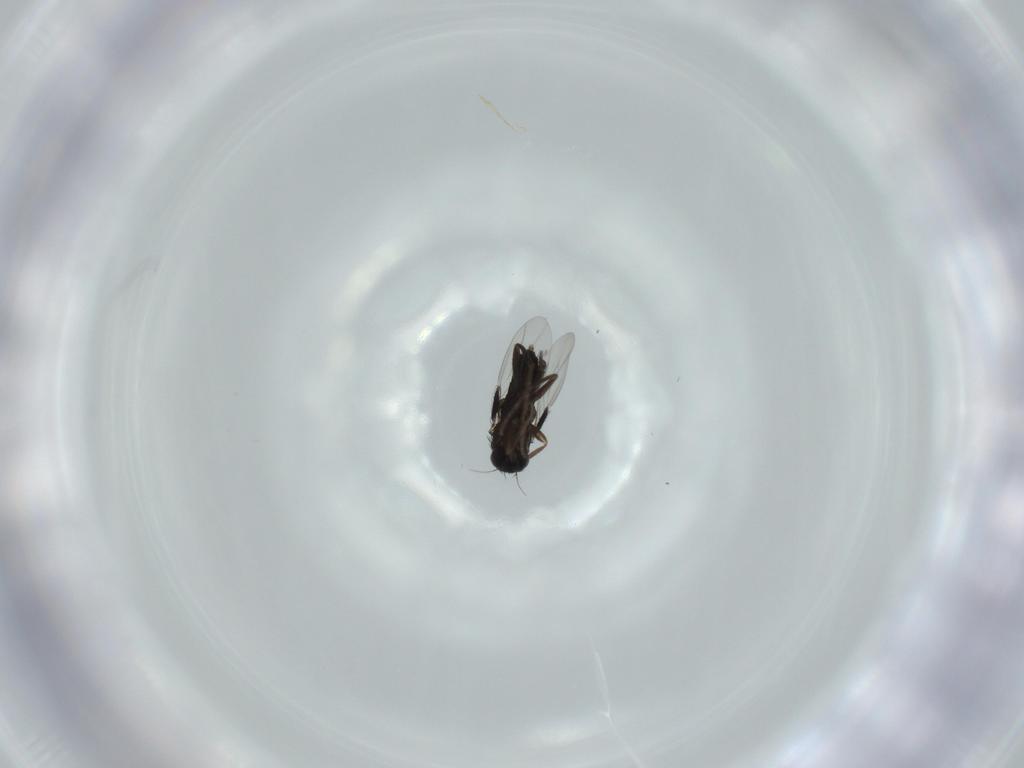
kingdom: Animalia
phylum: Arthropoda
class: Insecta
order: Diptera
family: Phoridae
